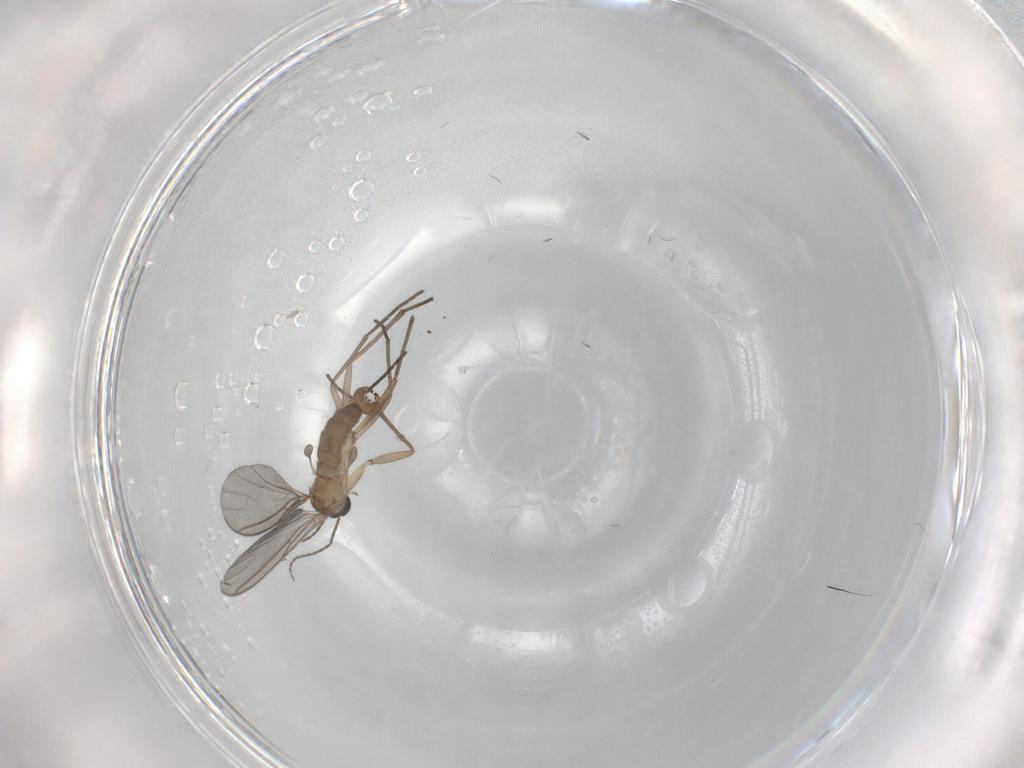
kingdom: Animalia
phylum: Arthropoda
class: Insecta
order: Diptera
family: Sciaridae
